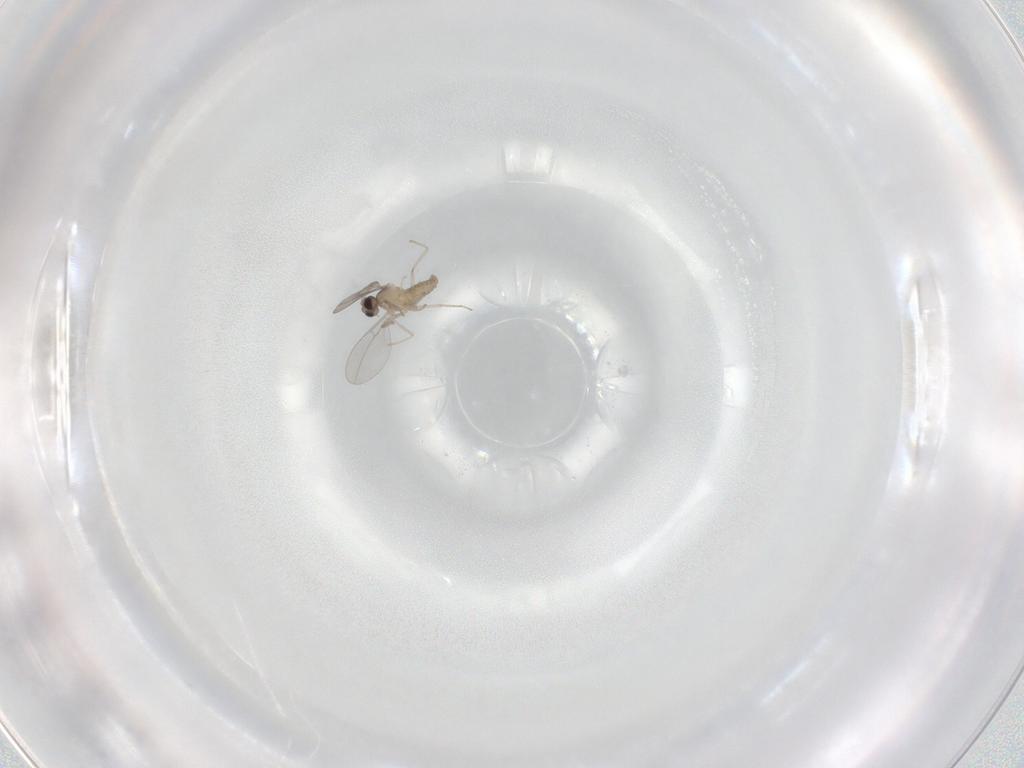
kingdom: Animalia
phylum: Arthropoda
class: Insecta
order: Diptera
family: Cecidomyiidae
